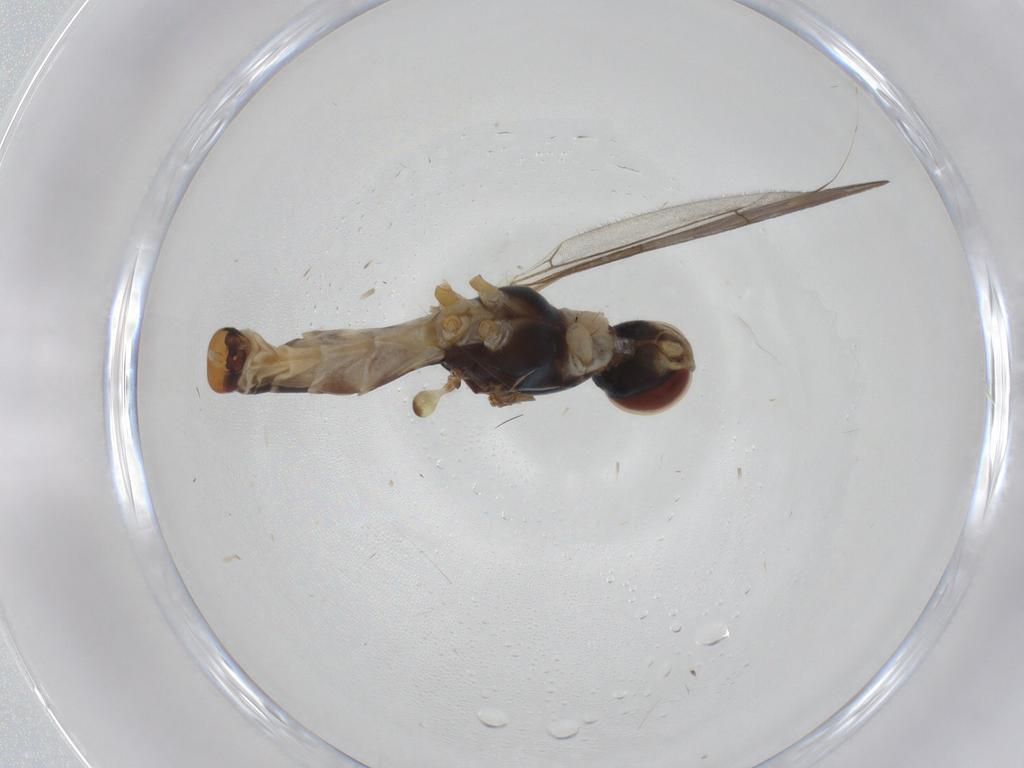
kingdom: Animalia
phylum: Arthropoda
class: Insecta
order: Diptera
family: Micropezidae
